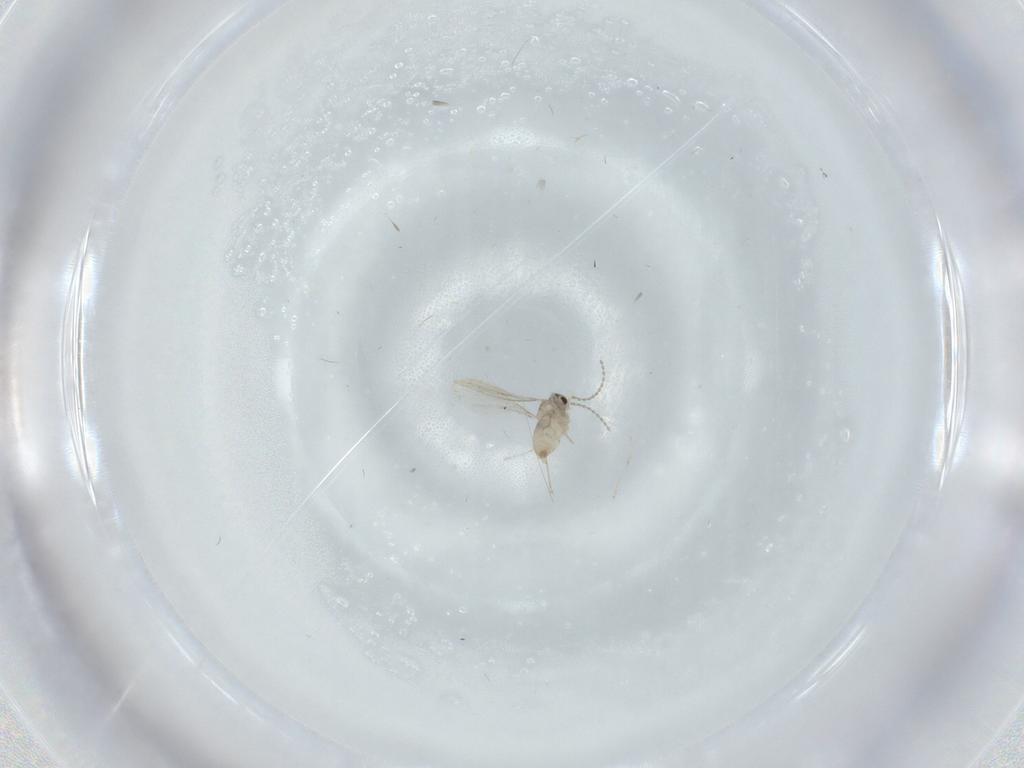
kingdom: Animalia
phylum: Arthropoda
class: Insecta
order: Diptera
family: Cecidomyiidae
